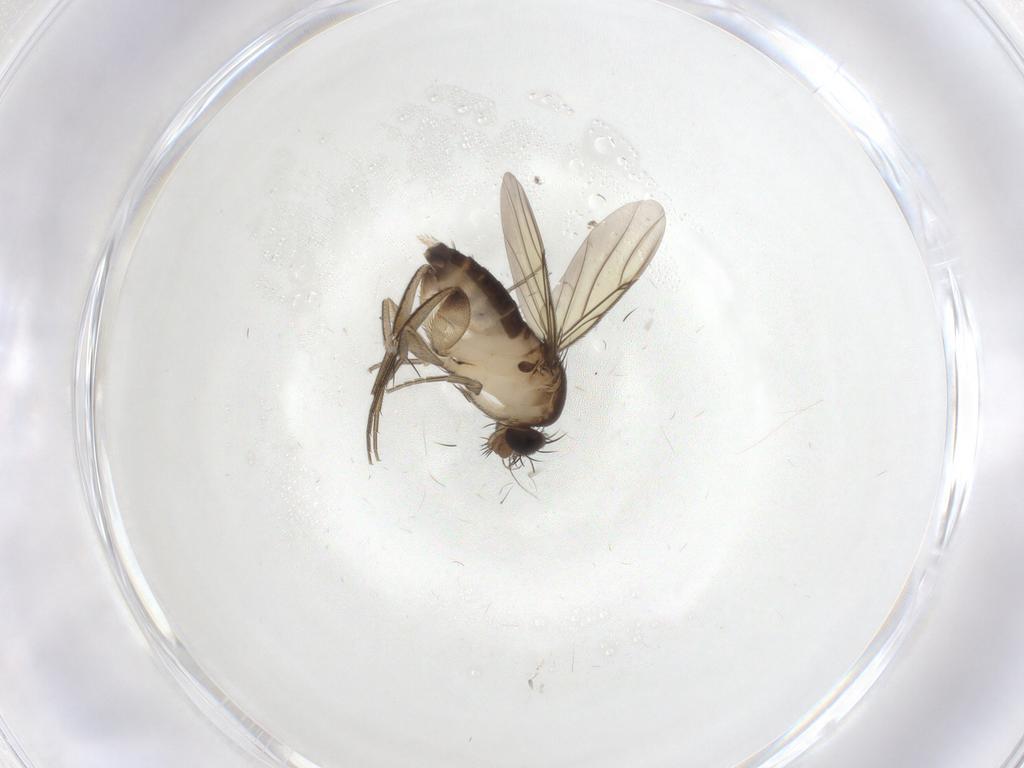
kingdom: Animalia
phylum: Arthropoda
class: Insecta
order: Diptera
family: Phoridae
